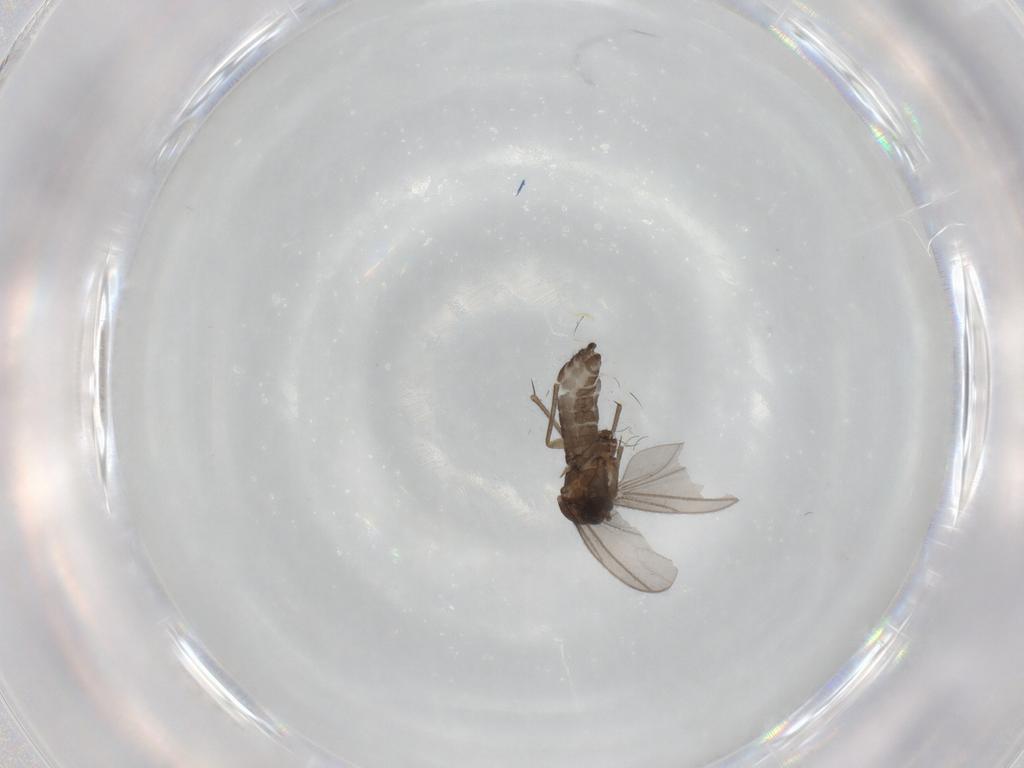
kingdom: Animalia
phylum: Arthropoda
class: Insecta
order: Diptera
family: Sciaridae
